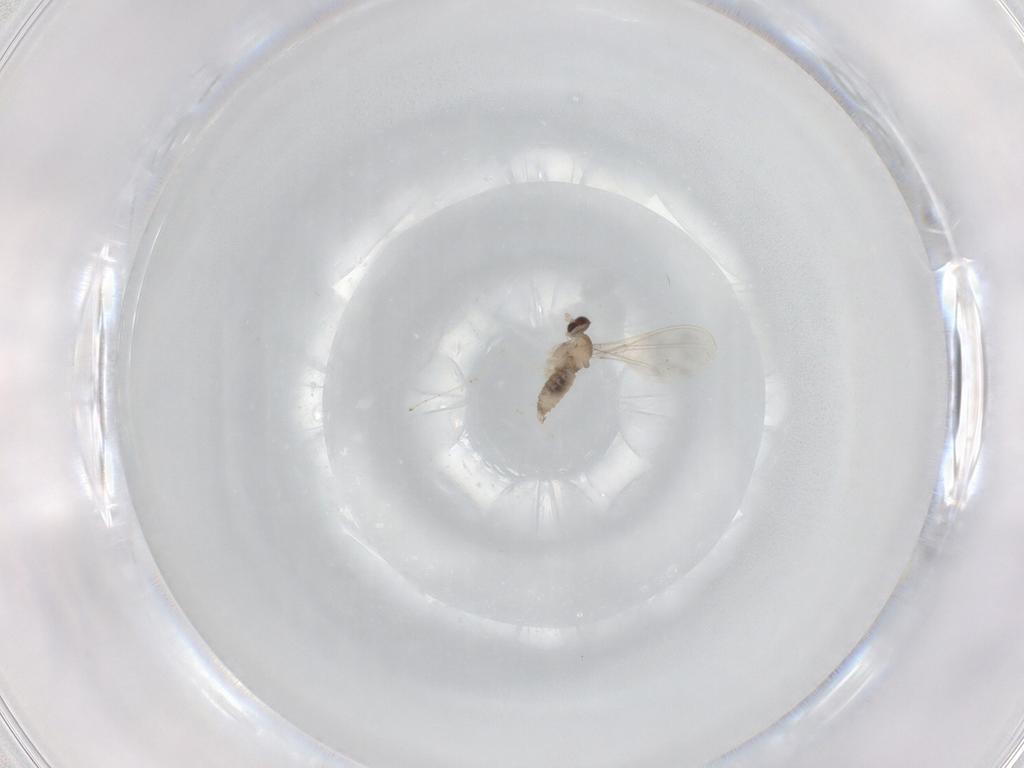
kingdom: Animalia
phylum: Arthropoda
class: Insecta
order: Diptera
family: Cecidomyiidae
